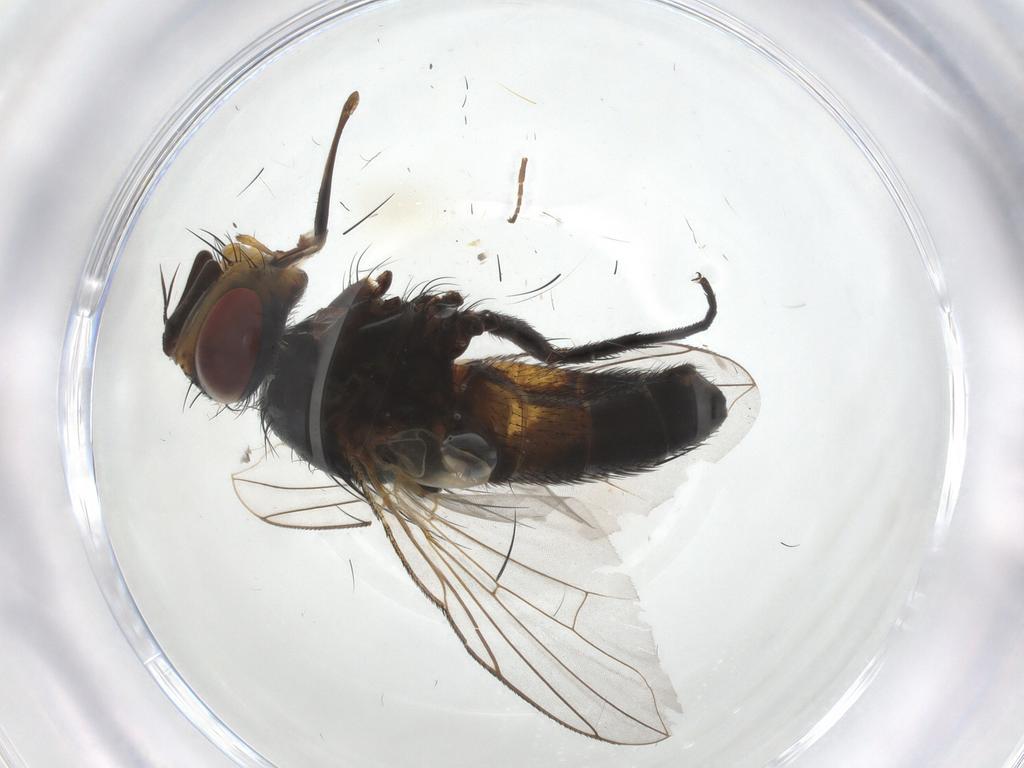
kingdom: Animalia
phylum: Arthropoda
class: Insecta
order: Diptera
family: Tachinidae
